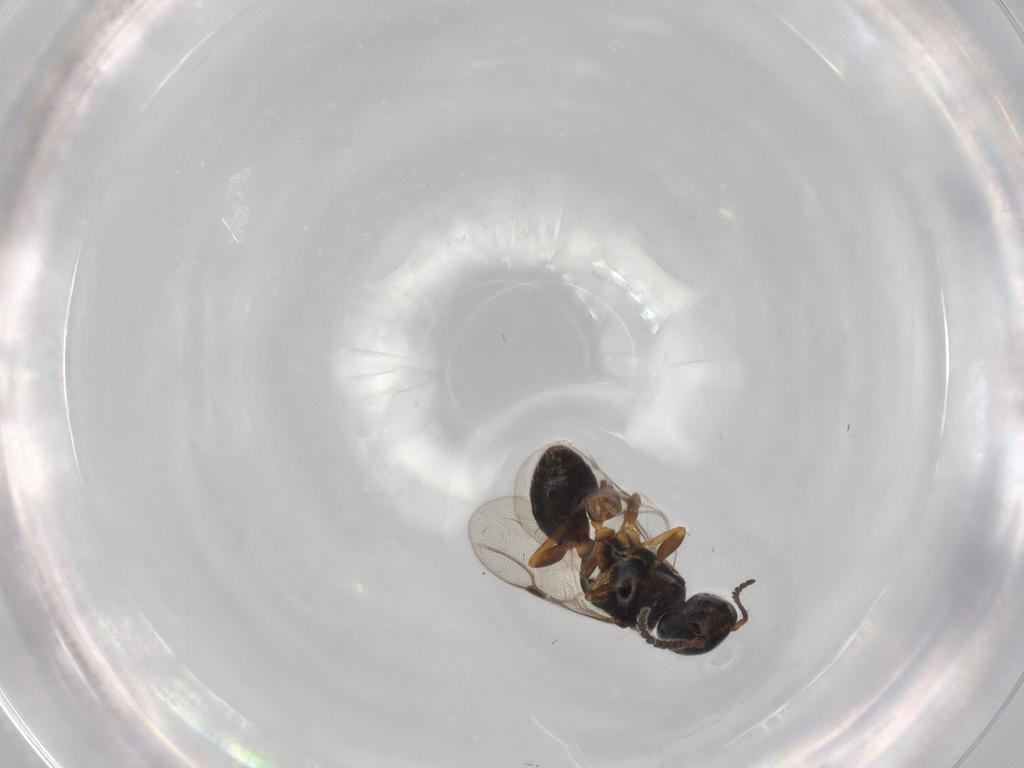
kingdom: Animalia
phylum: Arthropoda
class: Insecta
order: Hymenoptera
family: Bethylidae
